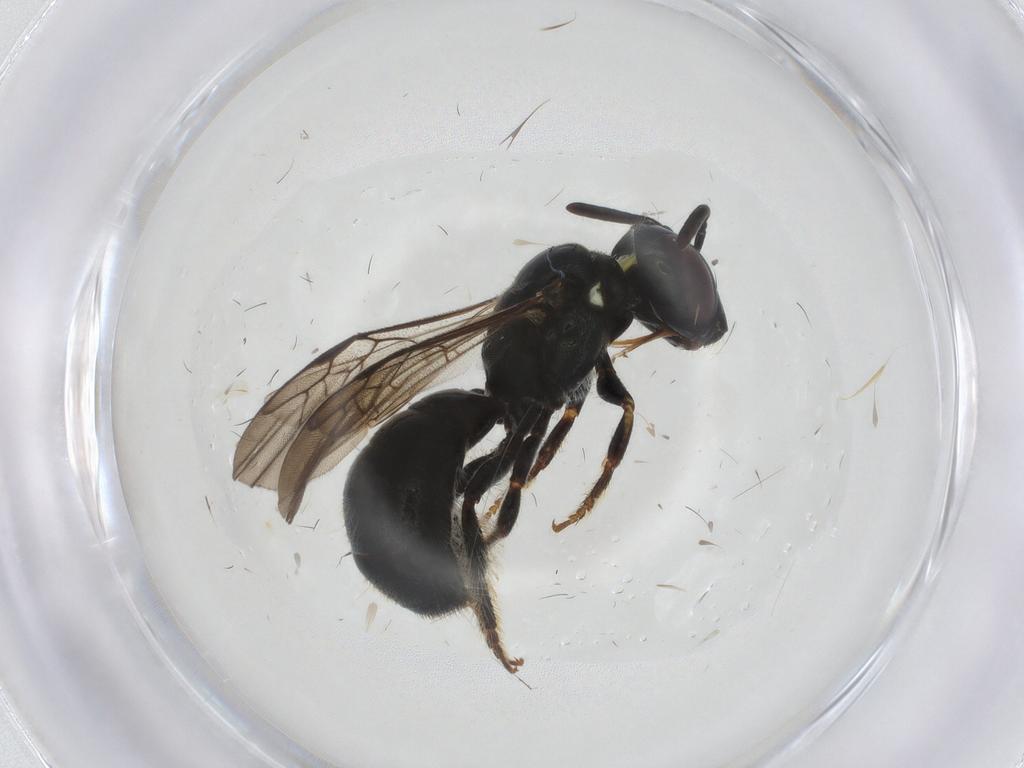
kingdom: Animalia
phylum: Arthropoda
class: Insecta
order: Hymenoptera
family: Apidae
